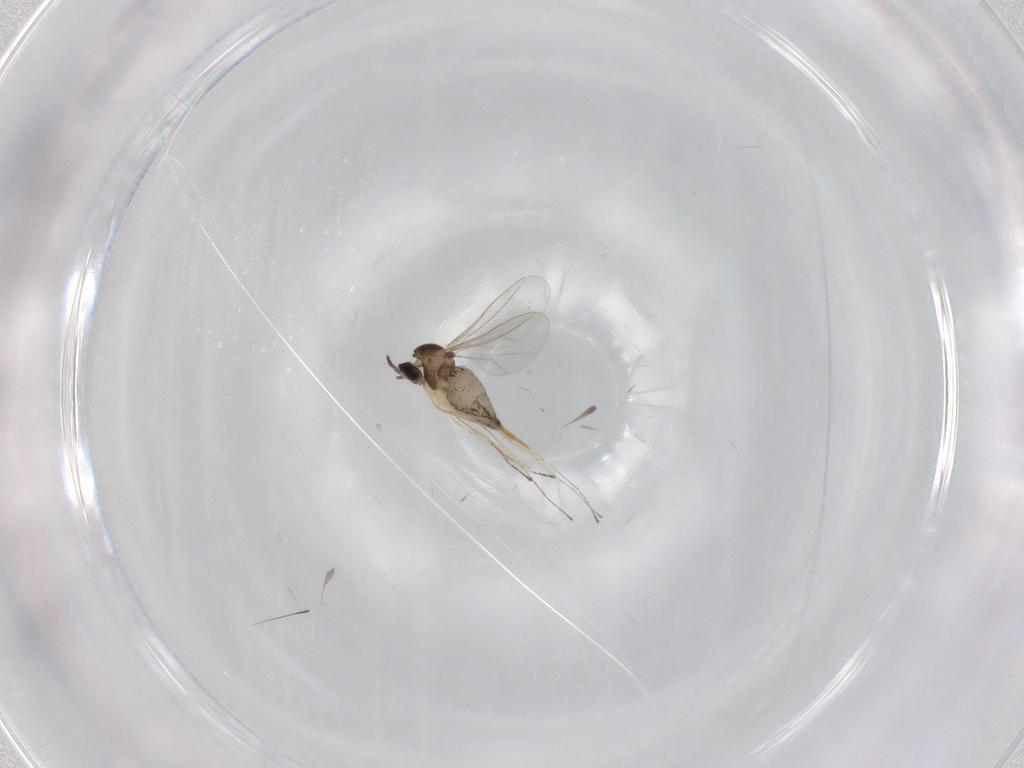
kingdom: Animalia
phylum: Arthropoda
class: Insecta
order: Diptera
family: Cecidomyiidae
